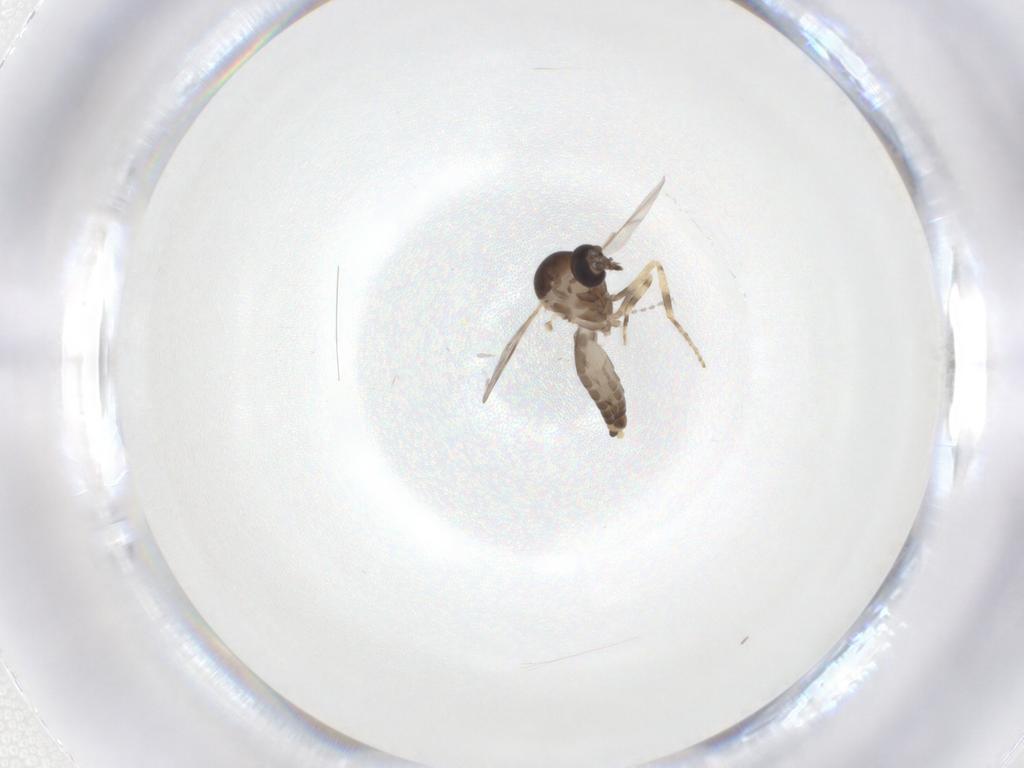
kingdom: Animalia
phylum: Arthropoda
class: Insecta
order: Diptera
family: Ceratopogonidae
